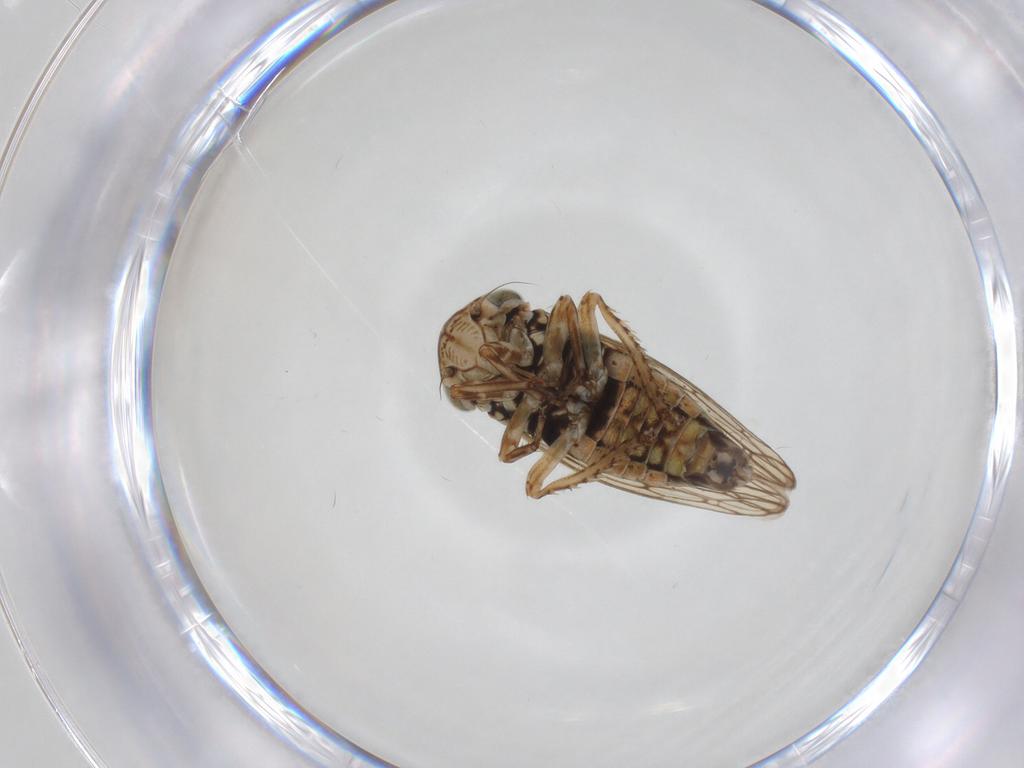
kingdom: Animalia
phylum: Arthropoda
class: Insecta
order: Hemiptera
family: Cicadellidae
